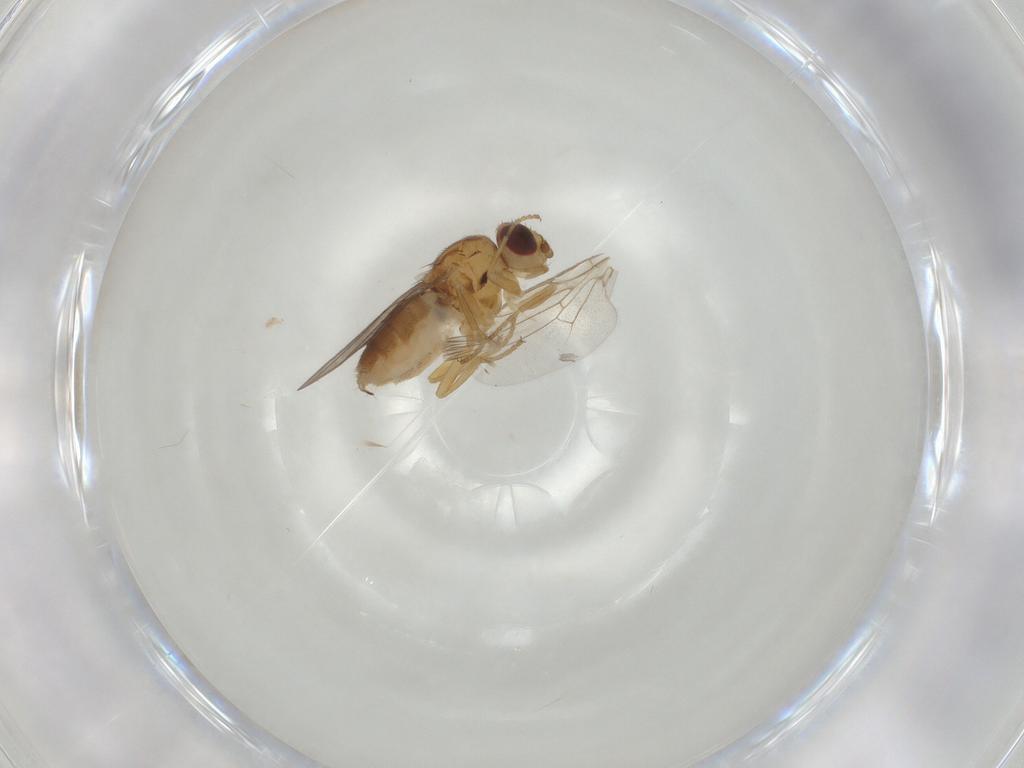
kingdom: Animalia
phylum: Arthropoda
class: Insecta
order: Diptera
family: Chloropidae
